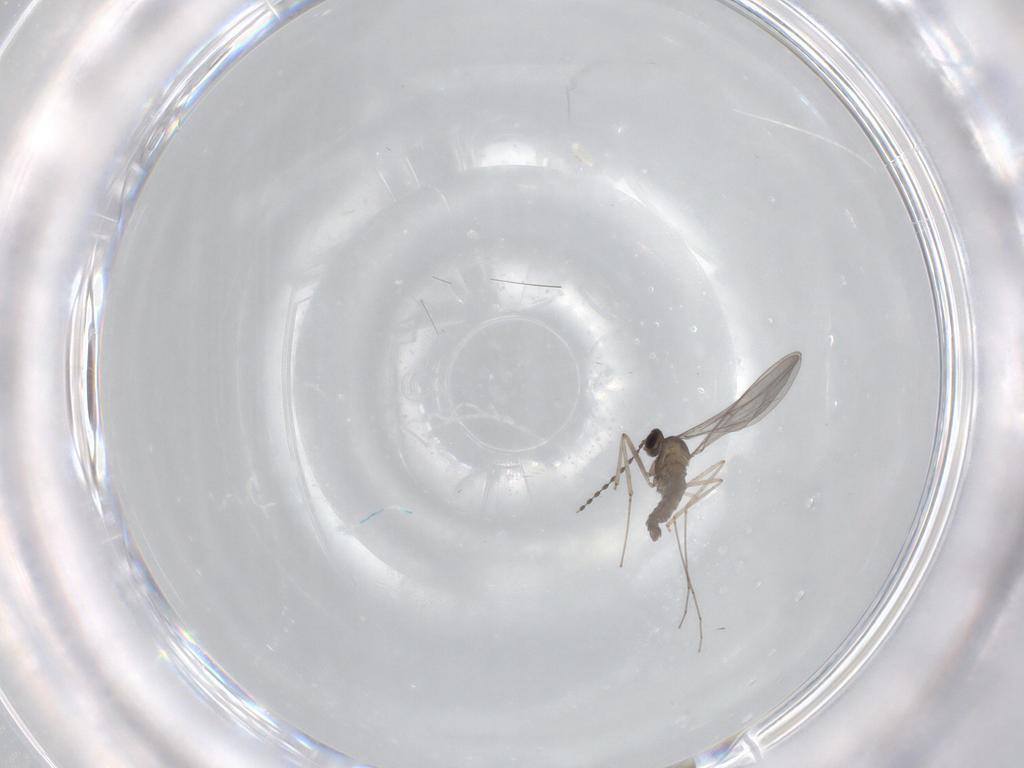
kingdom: Animalia
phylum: Arthropoda
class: Insecta
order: Diptera
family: Cecidomyiidae
